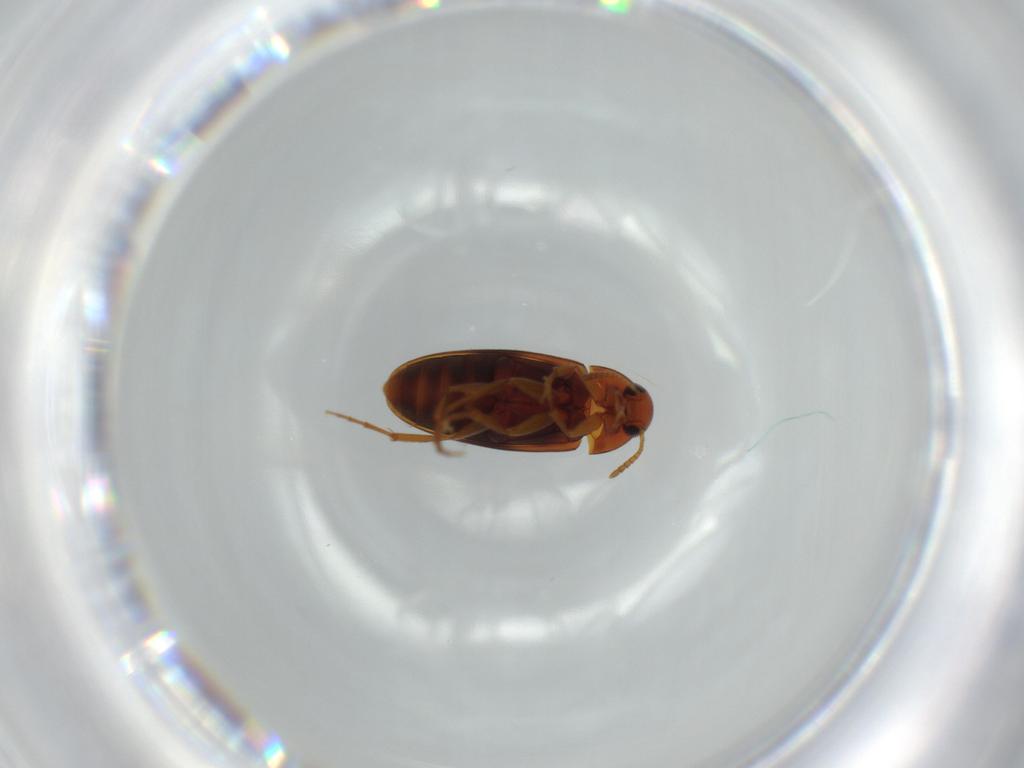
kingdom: Animalia
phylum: Arthropoda
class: Insecta
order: Coleoptera
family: Scraptiidae
